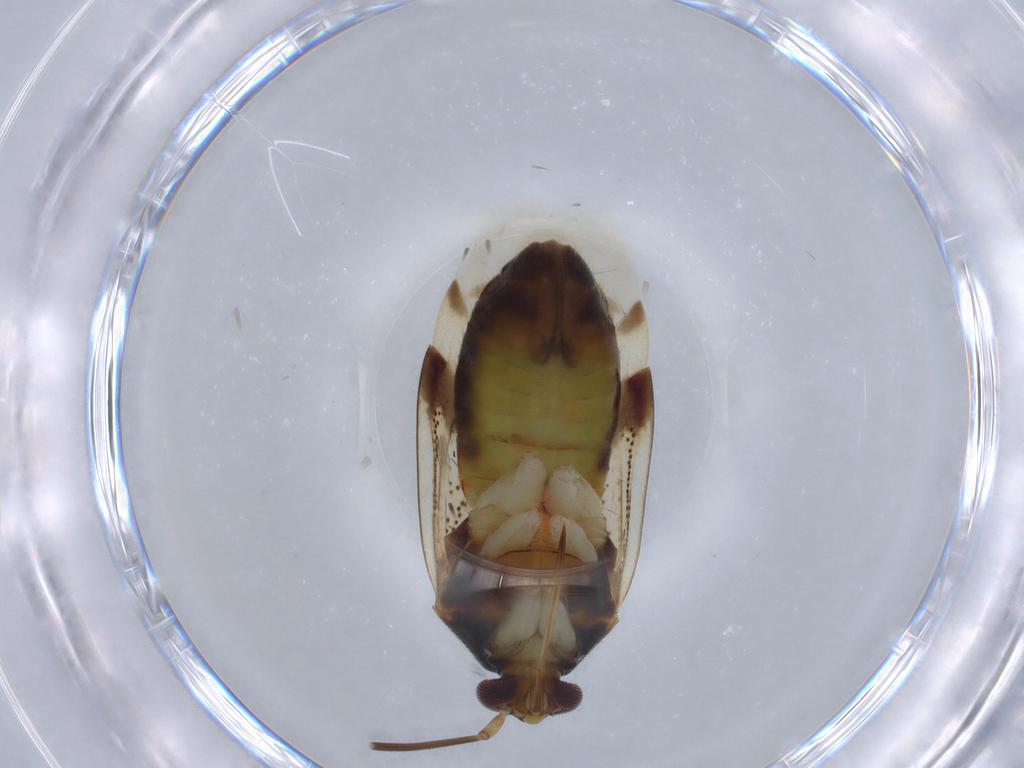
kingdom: Animalia
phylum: Arthropoda
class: Insecta
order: Hemiptera
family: Miridae
